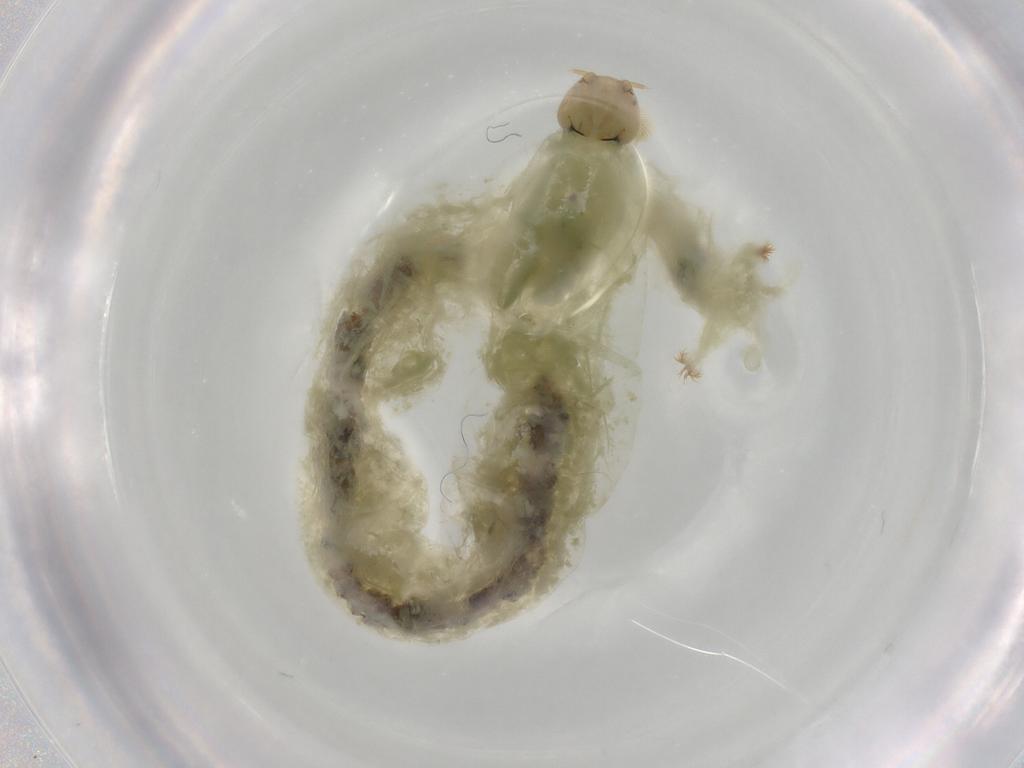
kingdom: Animalia
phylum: Arthropoda
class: Insecta
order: Diptera
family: Chironomidae
